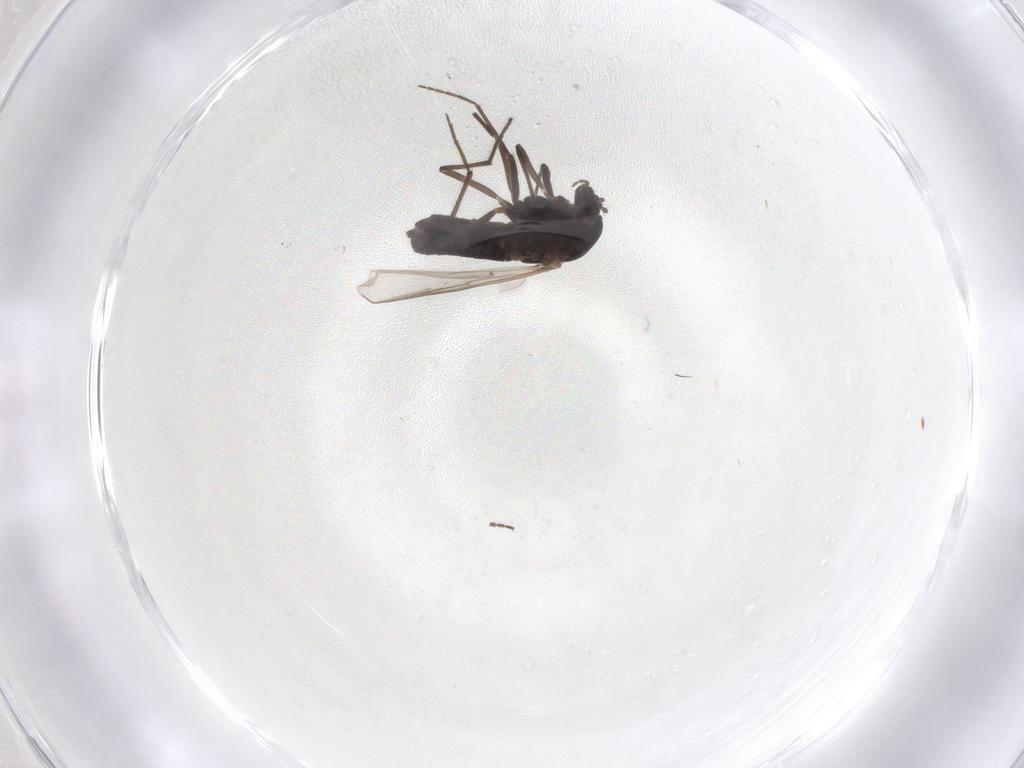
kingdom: Animalia
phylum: Arthropoda
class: Insecta
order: Diptera
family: Chironomidae
